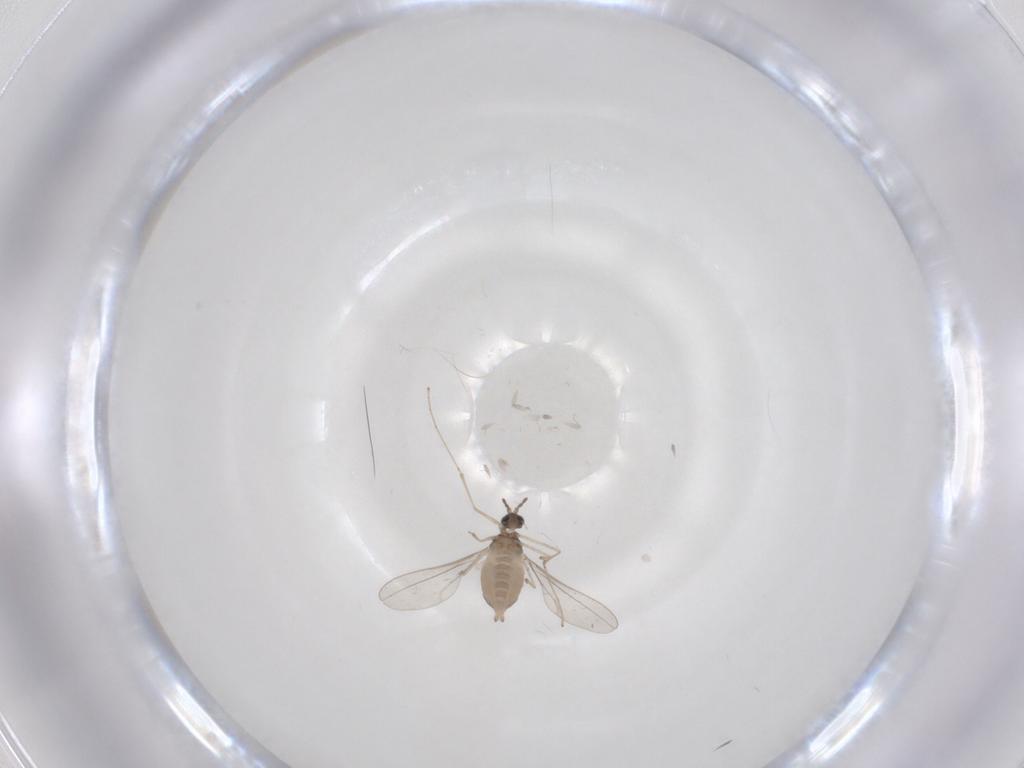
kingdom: Animalia
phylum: Arthropoda
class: Insecta
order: Diptera
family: Cecidomyiidae
